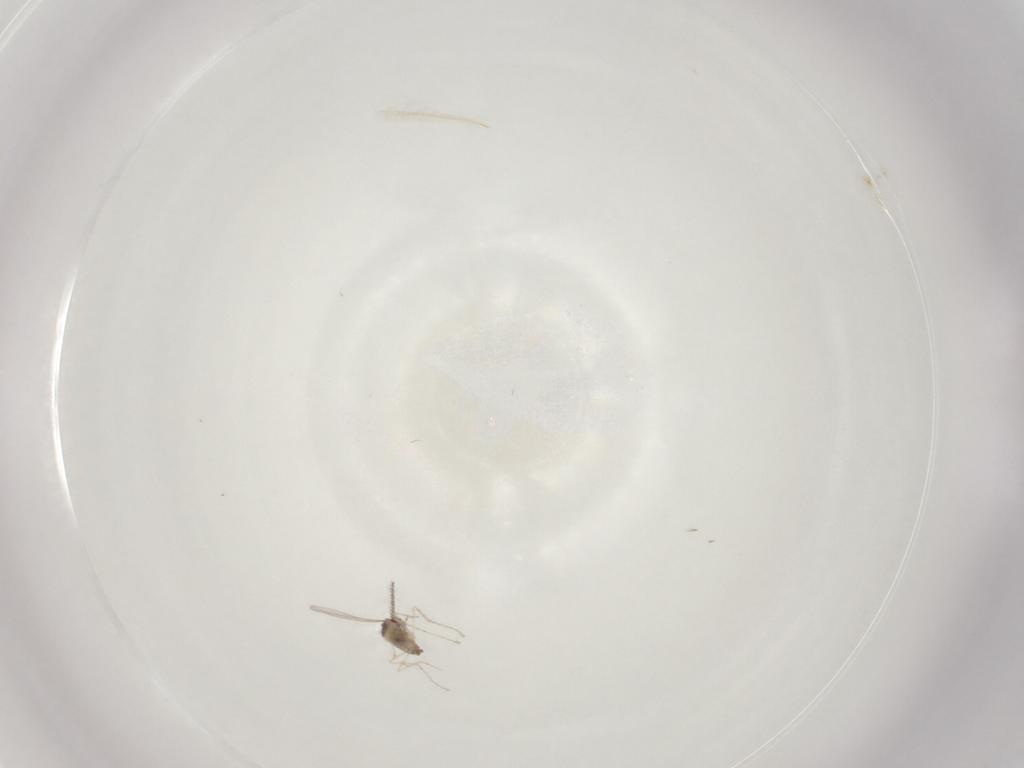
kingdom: Animalia
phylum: Arthropoda
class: Insecta
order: Diptera
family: Cecidomyiidae
